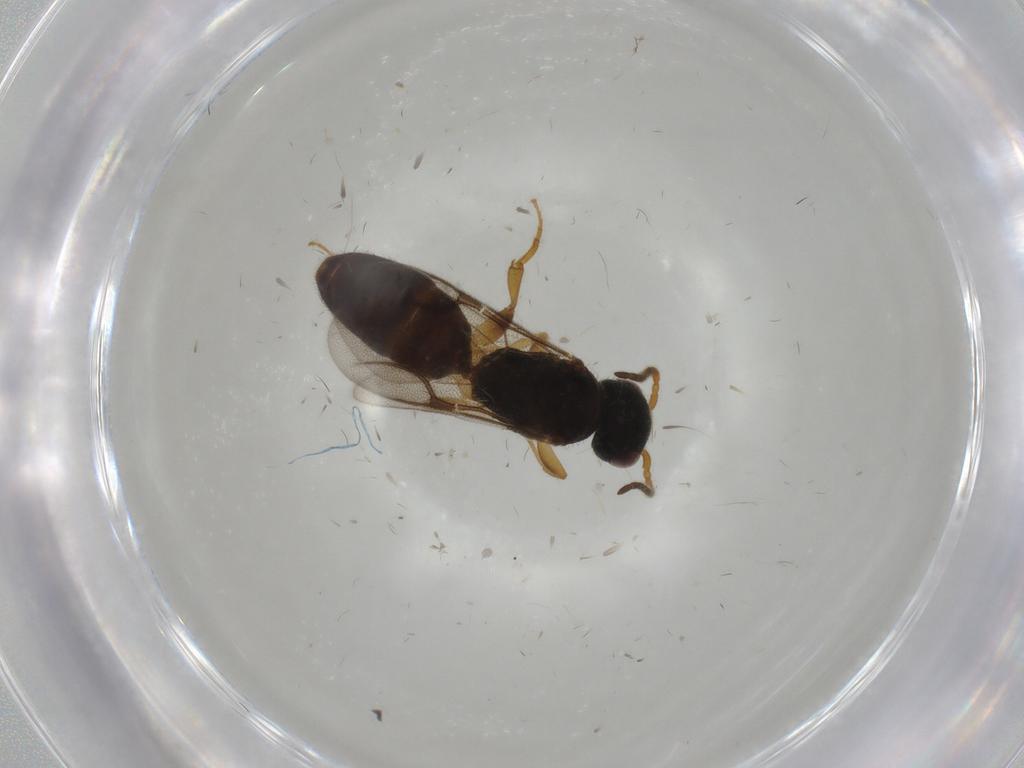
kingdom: Animalia
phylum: Arthropoda
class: Insecta
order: Hymenoptera
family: Bethylidae
